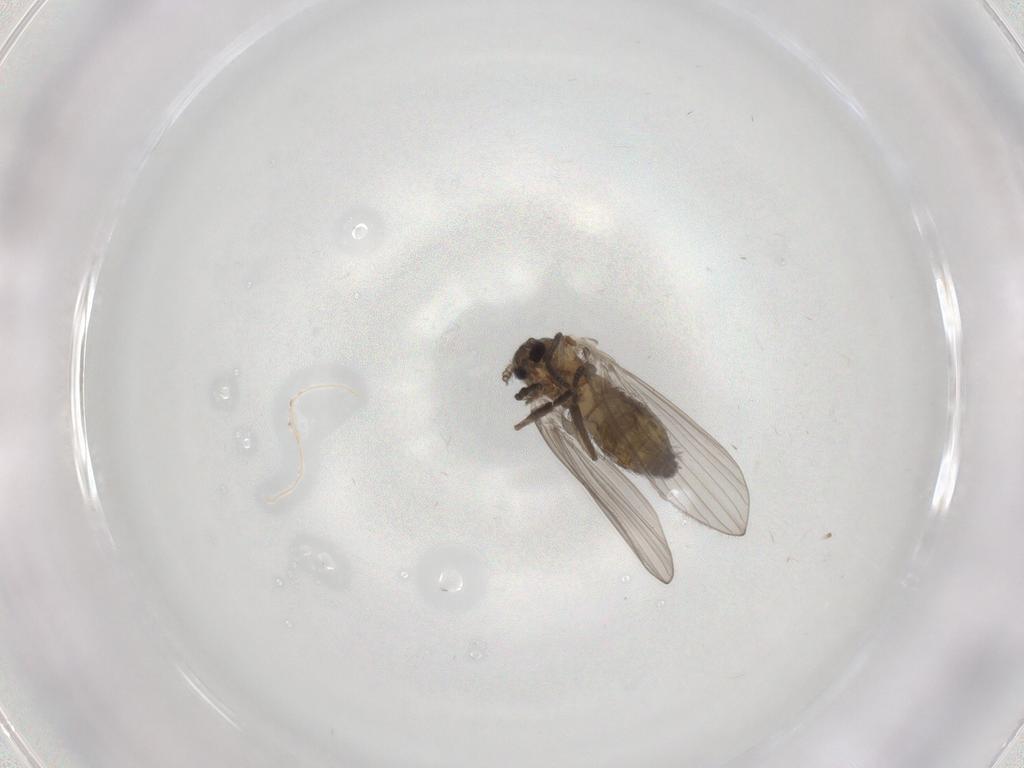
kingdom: Animalia
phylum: Arthropoda
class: Insecta
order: Diptera
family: Psychodidae
